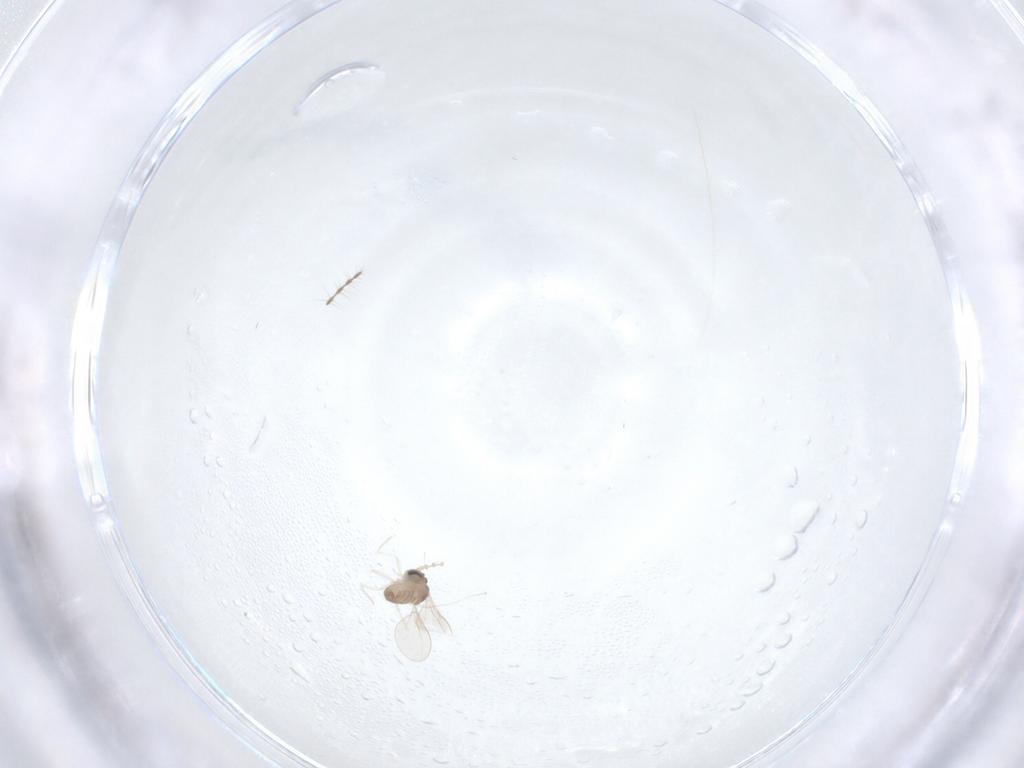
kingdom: Animalia
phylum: Arthropoda
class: Insecta
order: Diptera
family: Cecidomyiidae
